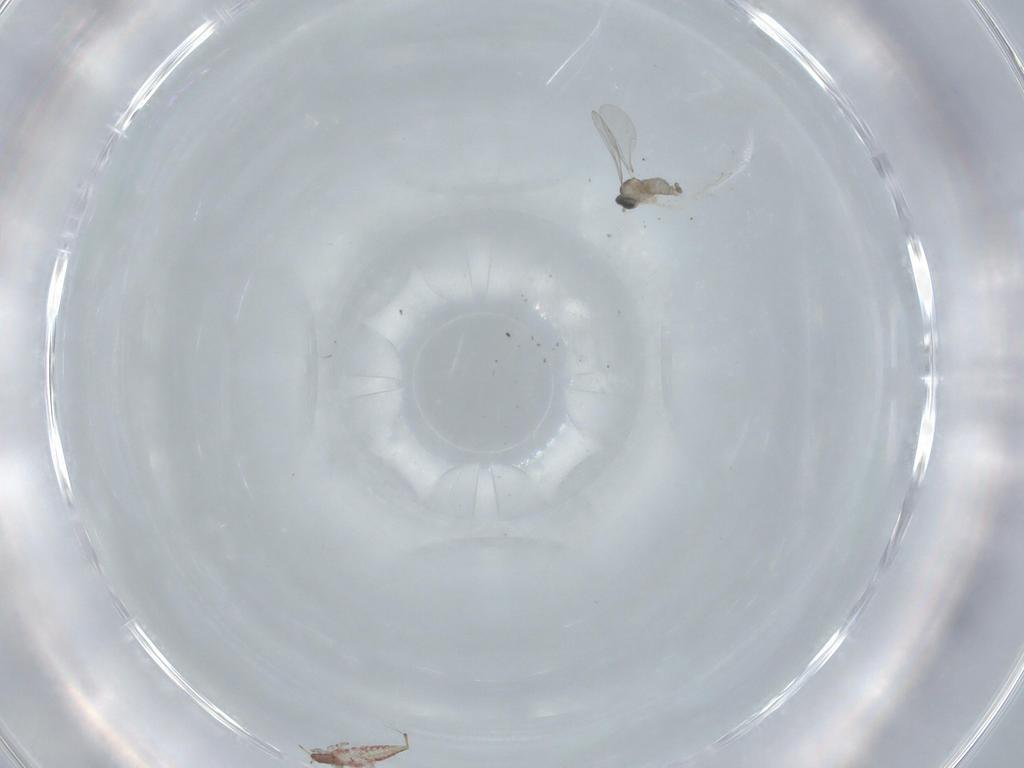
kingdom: Animalia
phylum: Arthropoda
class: Insecta
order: Diptera
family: Cecidomyiidae
